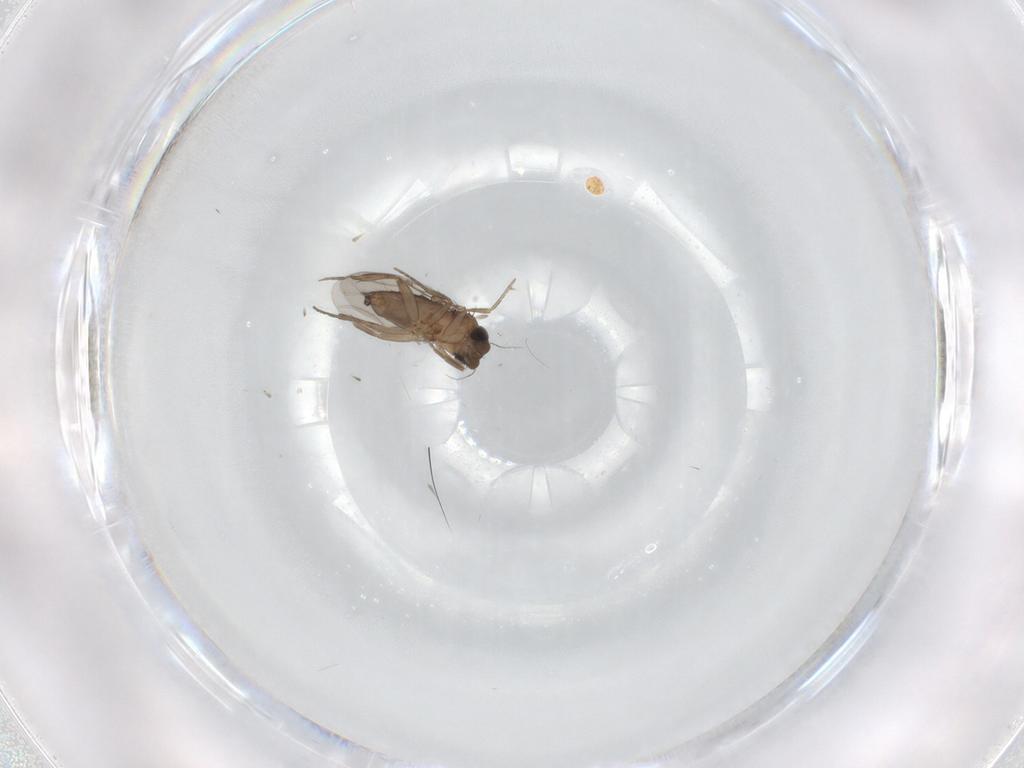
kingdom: Animalia
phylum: Arthropoda
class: Insecta
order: Diptera
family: Phoridae
